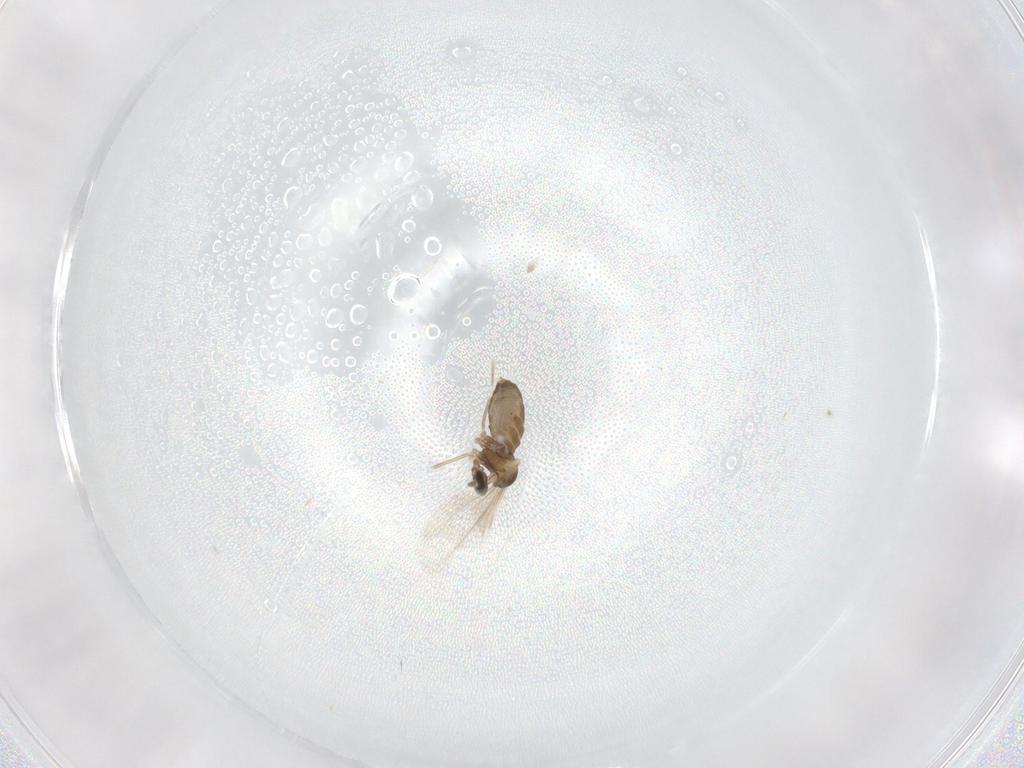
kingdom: Animalia
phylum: Arthropoda
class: Insecta
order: Diptera
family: Cecidomyiidae
